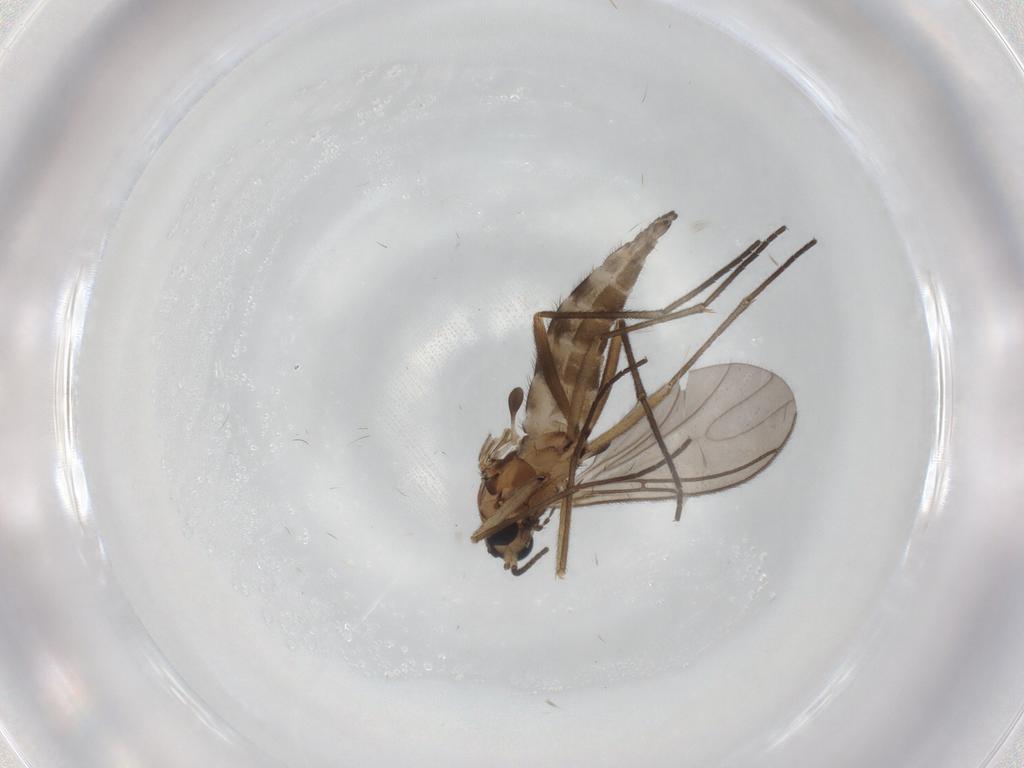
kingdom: Animalia
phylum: Arthropoda
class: Insecta
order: Diptera
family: Sciaridae
